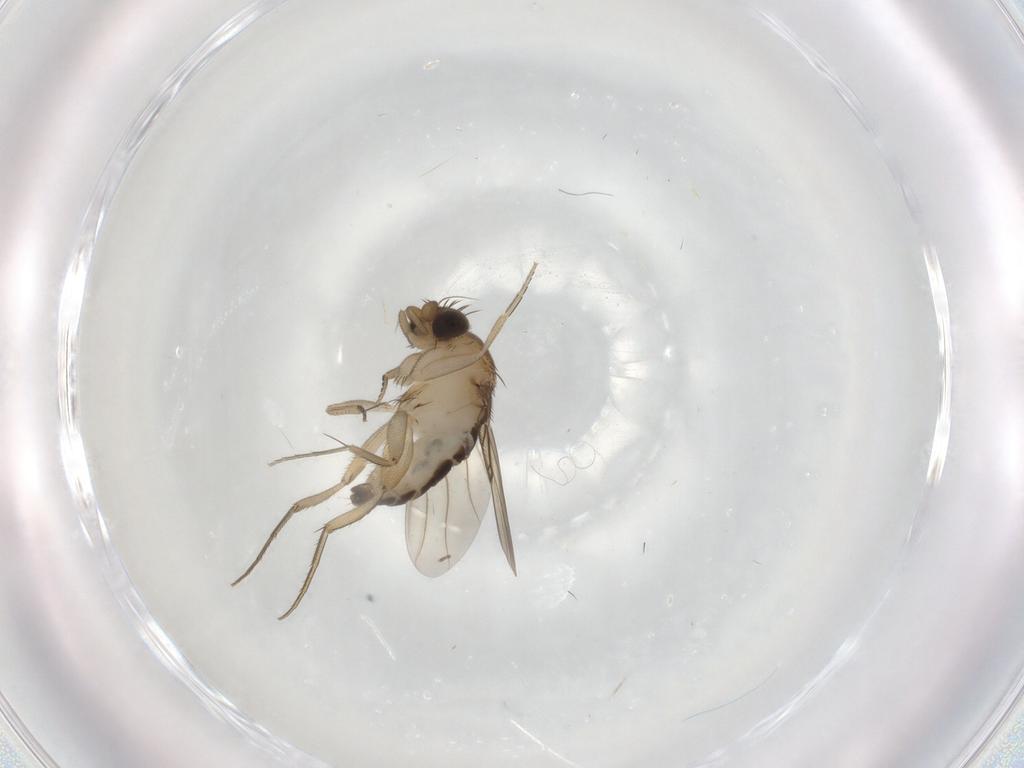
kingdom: Animalia
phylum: Arthropoda
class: Insecta
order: Diptera
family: Phoridae
